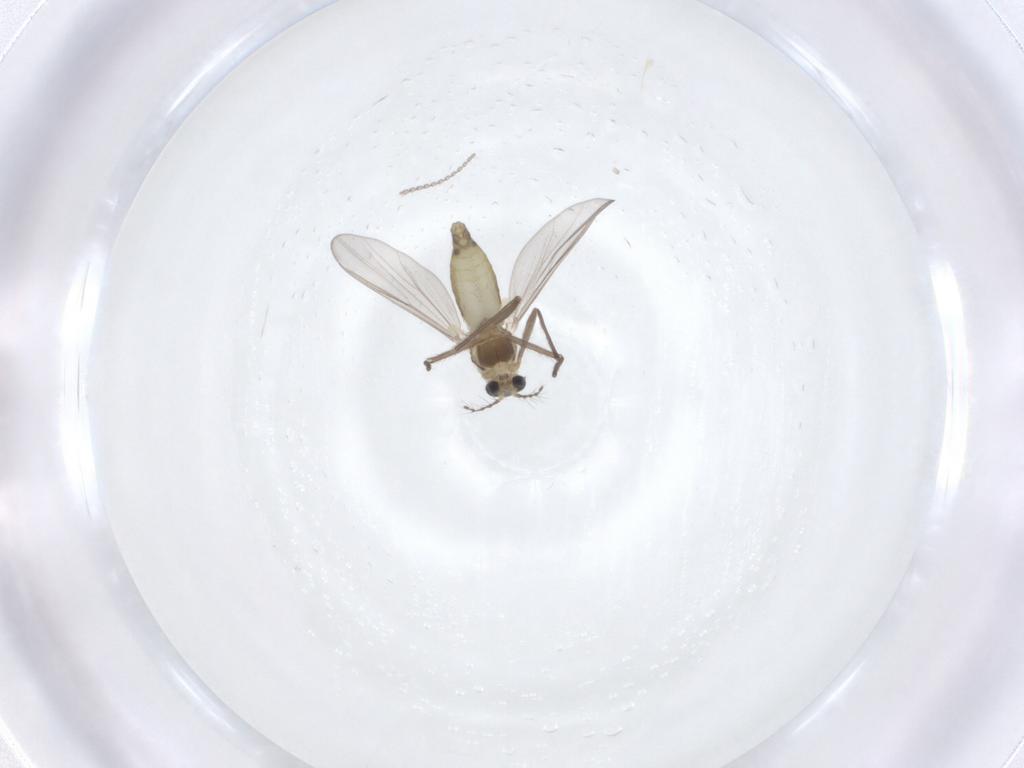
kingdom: Animalia
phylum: Arthropoda
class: Insecta
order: Diptera
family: Chironomidae
